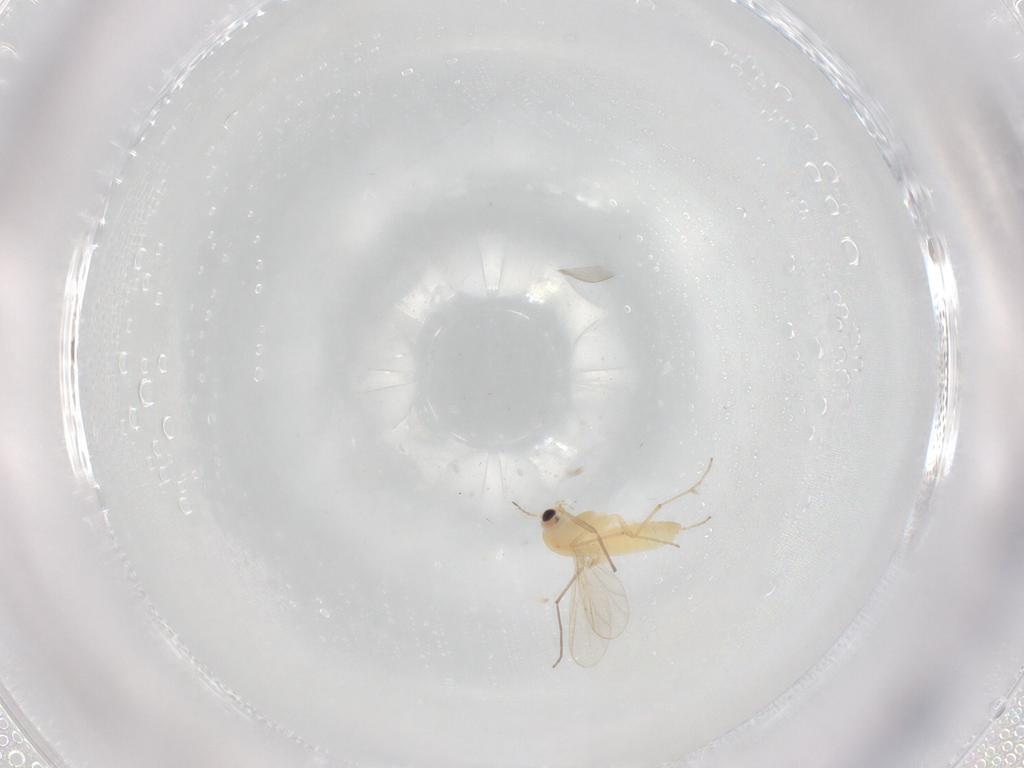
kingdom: Animalia
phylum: Arthropoda
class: Insecta
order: Diptera
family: Chironomidae
